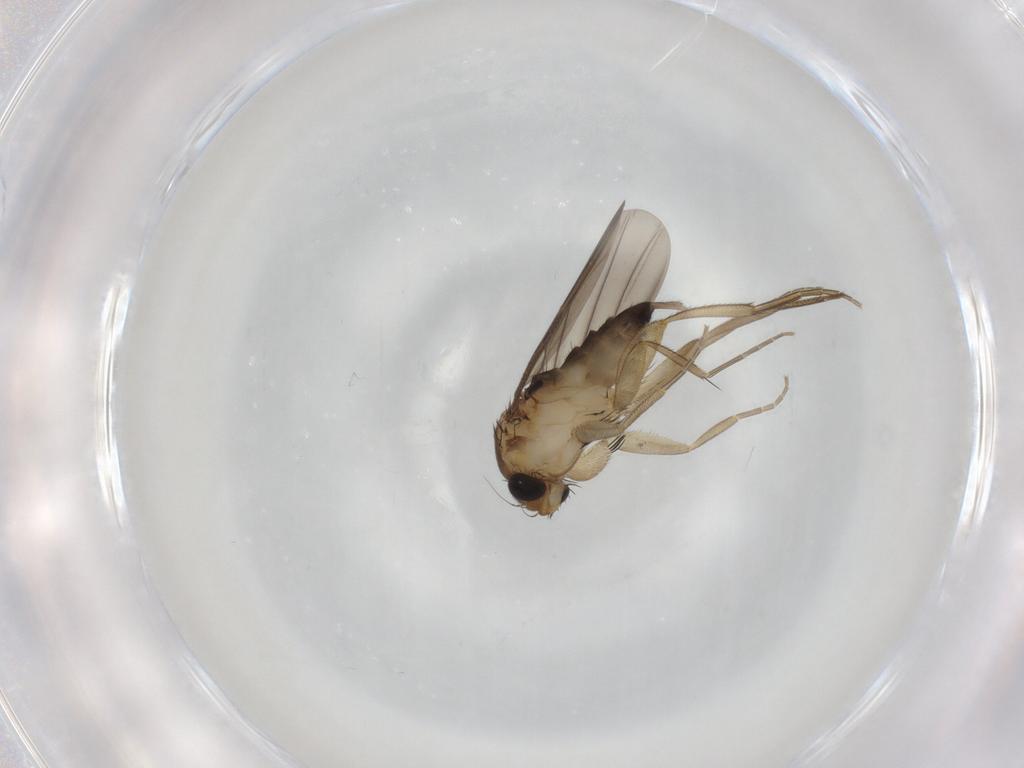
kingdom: Animalia
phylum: Arthropoda
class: Insecta
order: Diptera
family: Phoridae
